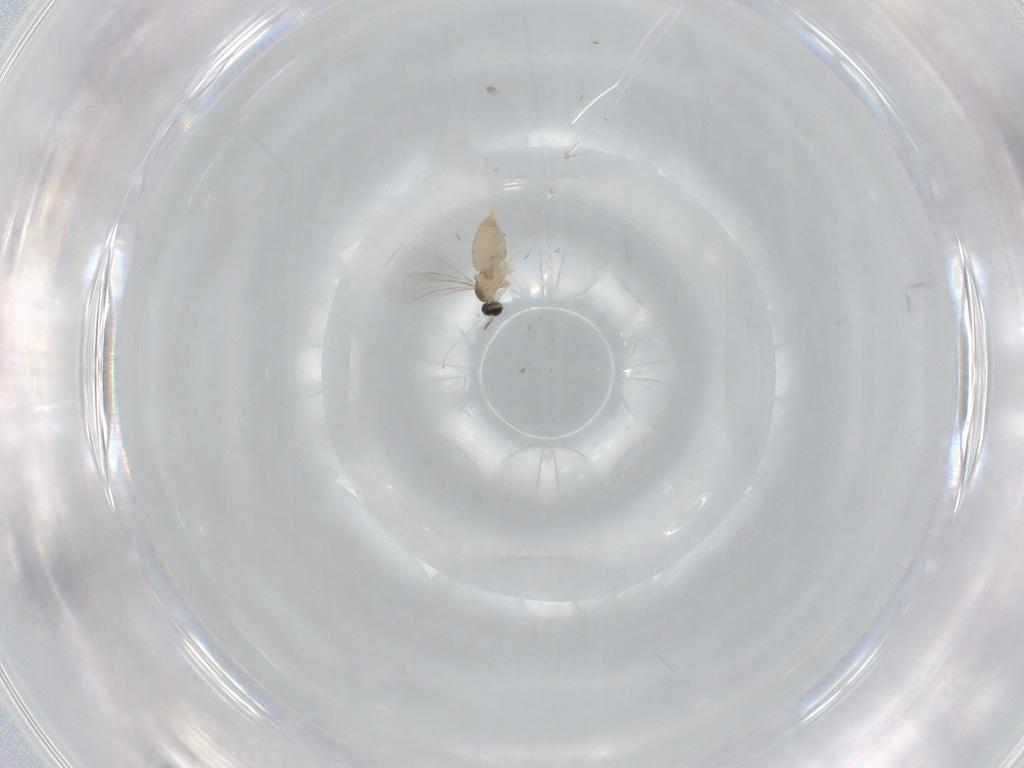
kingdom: Animalia
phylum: Arthropoda
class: Insecta
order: Diptera
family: Cecidomyiidae
